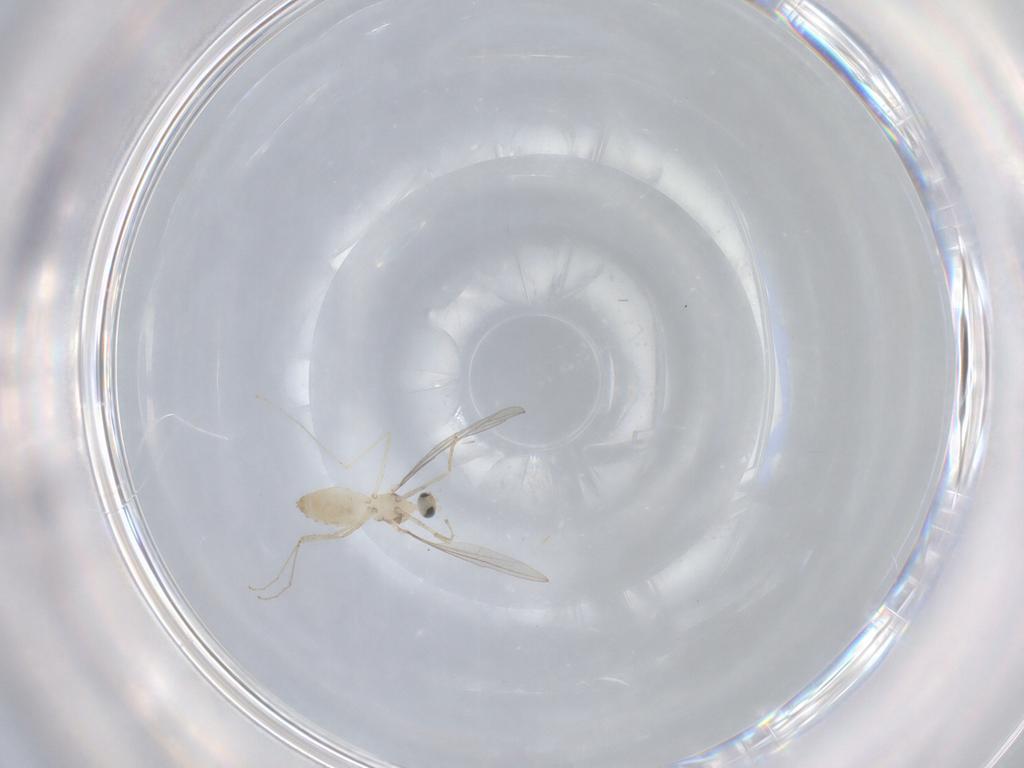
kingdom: Animalia
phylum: Arthropoda
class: Insecta
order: Diptera
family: Cecidomyiidae
